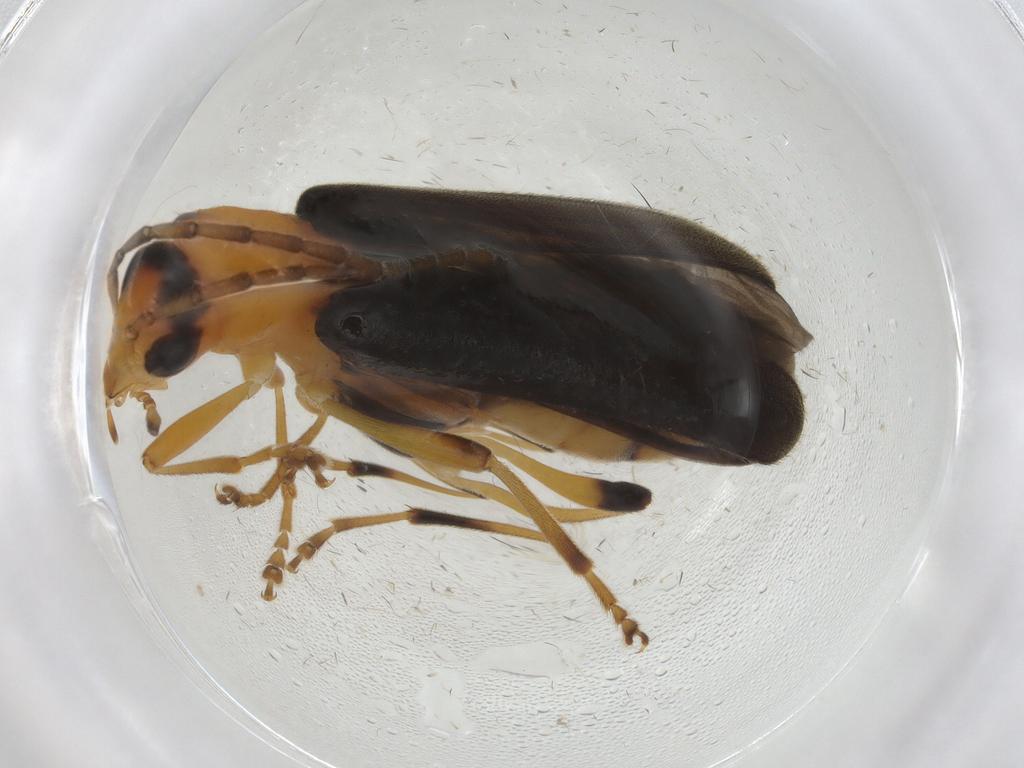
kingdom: Animalia
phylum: Arthropoda
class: Insecta
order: Coleoptera
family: Oedemeridae
